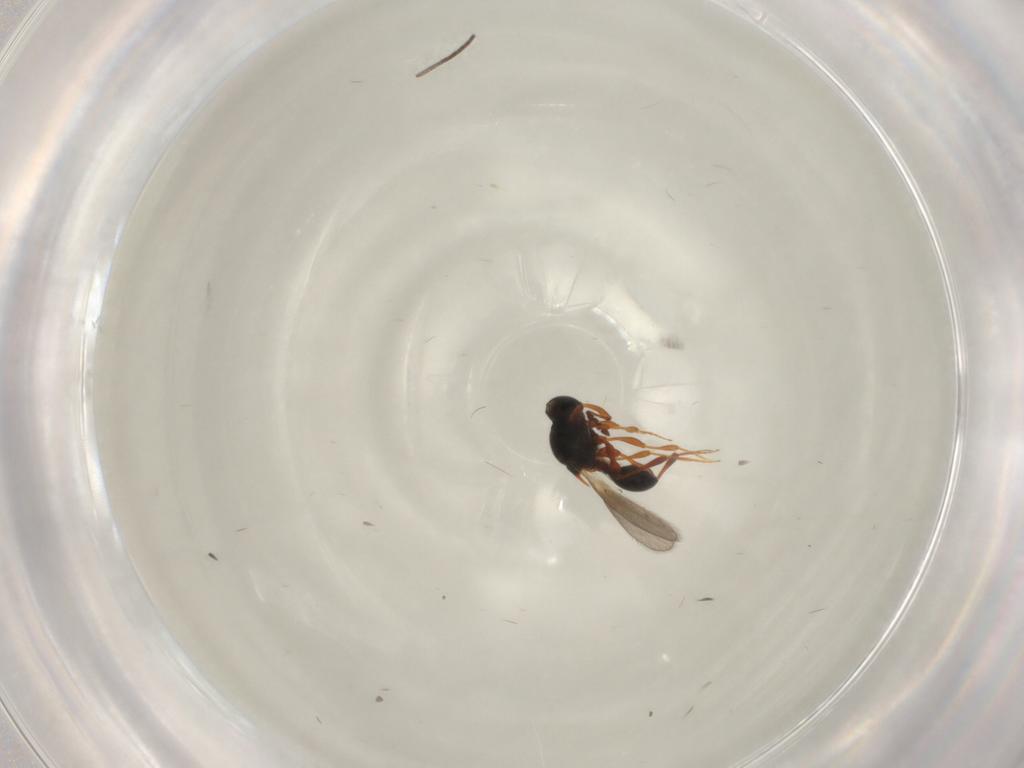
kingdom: Animalia
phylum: Arthropoda
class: Insecta
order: Hymenoptera
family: Platygastridae
